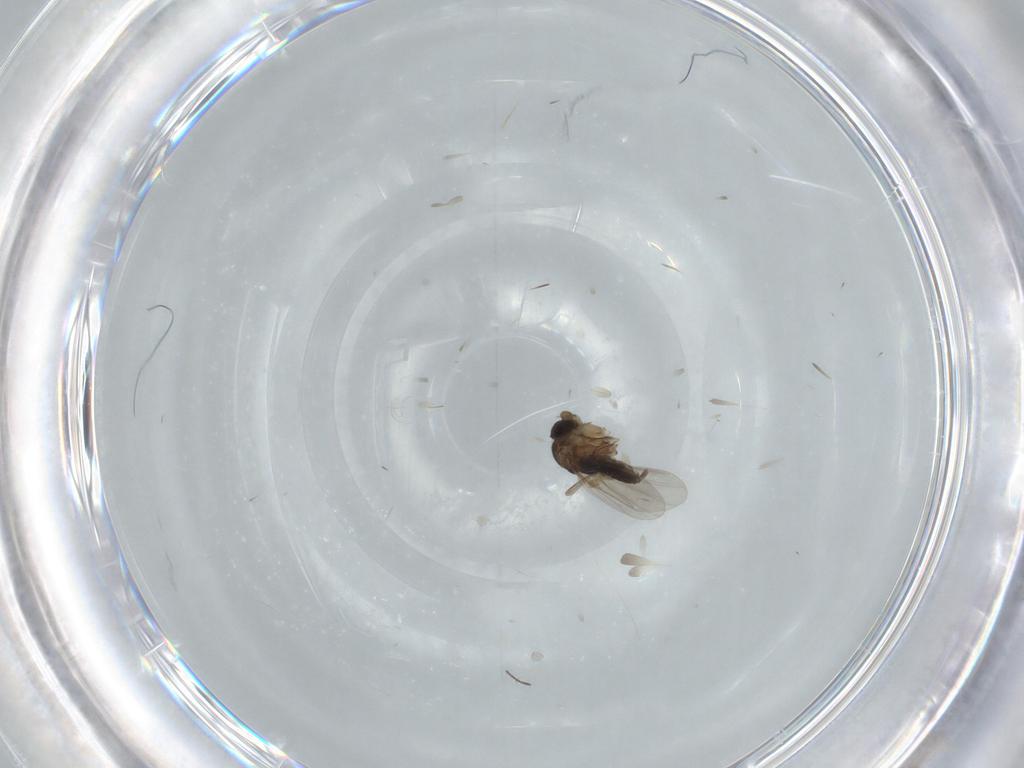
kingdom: Animalia
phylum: Arthropoda
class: Insecta
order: Diptera
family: Phoridae
